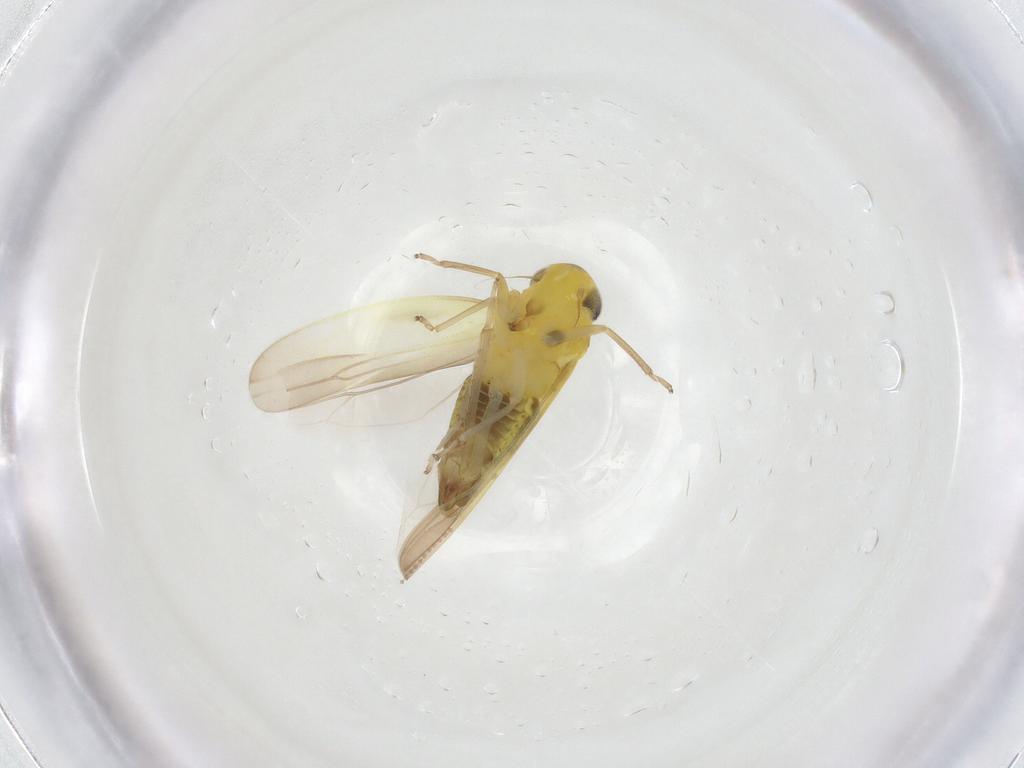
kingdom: Animalia
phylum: Arthropoda
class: Insecta
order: Hemiptera
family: Cicadellidae
